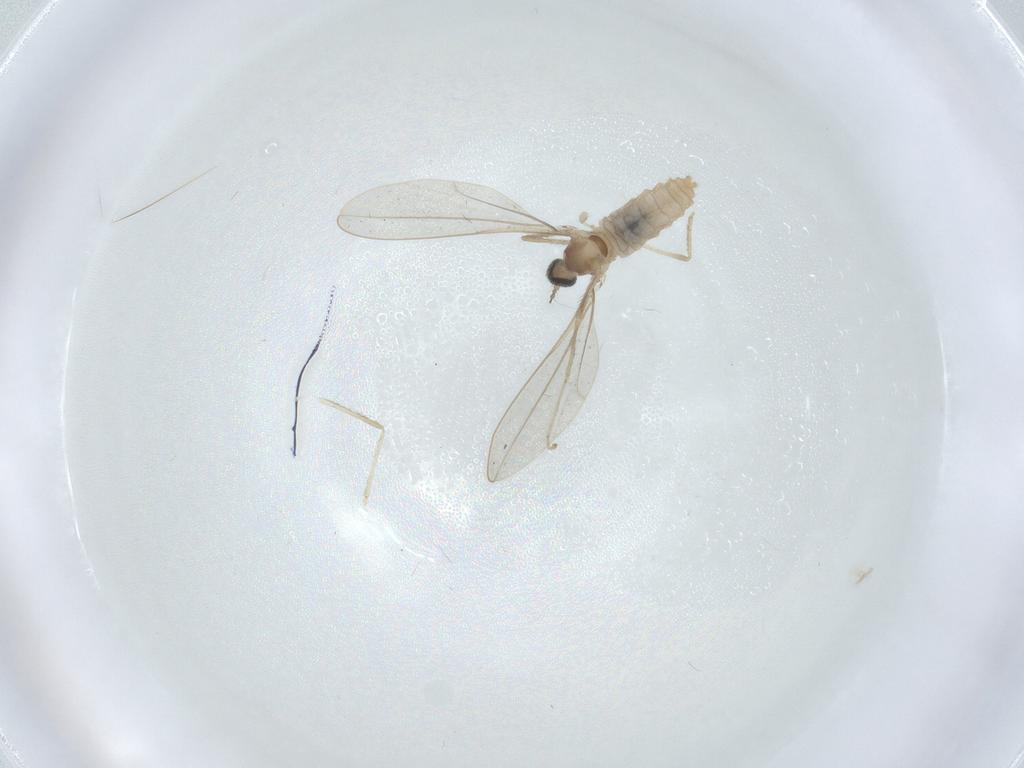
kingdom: Animalia
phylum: Arthropoda
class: Insecta
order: Diptera
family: Cecidomyiidae
